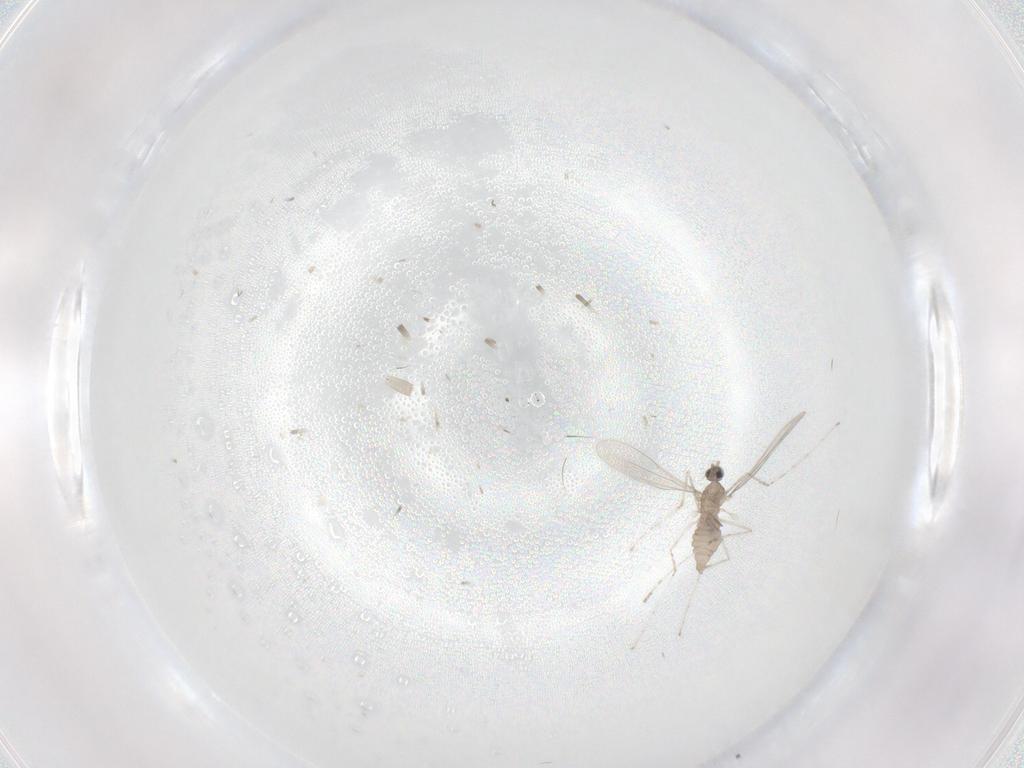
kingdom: Animalia
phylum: Arthropoda
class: Insecta
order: Diptera
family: Cecidomyiidae
